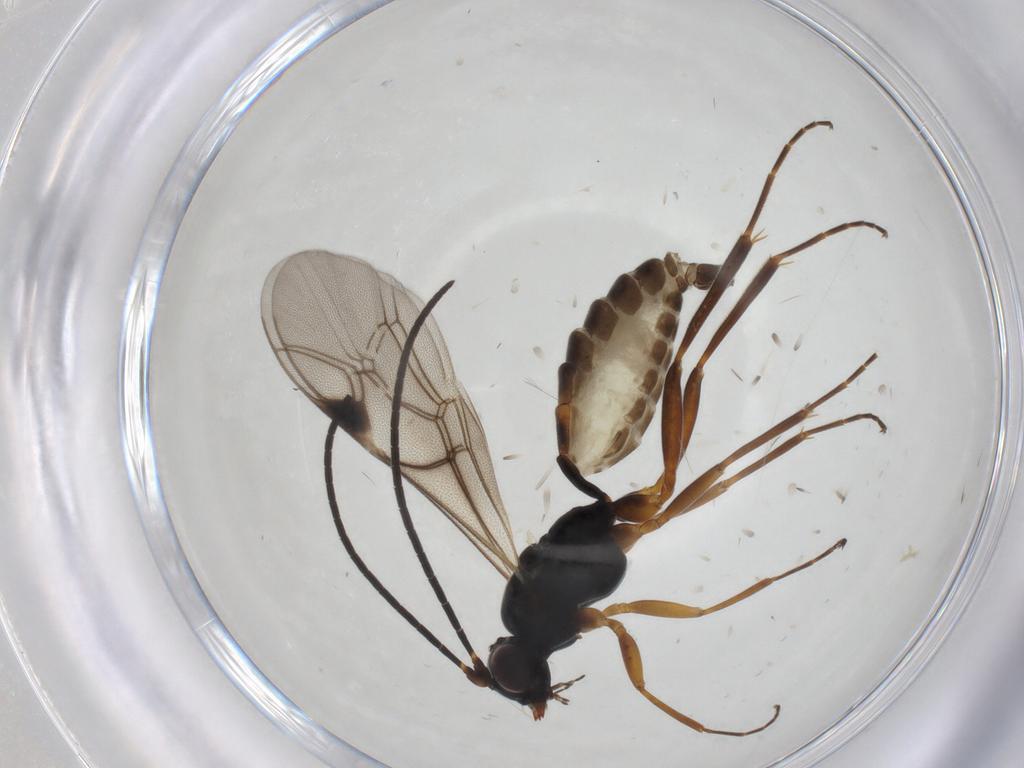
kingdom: Animalia
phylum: Arthropoda
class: Insecta
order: Hymenoptera
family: Ichneumonidae
